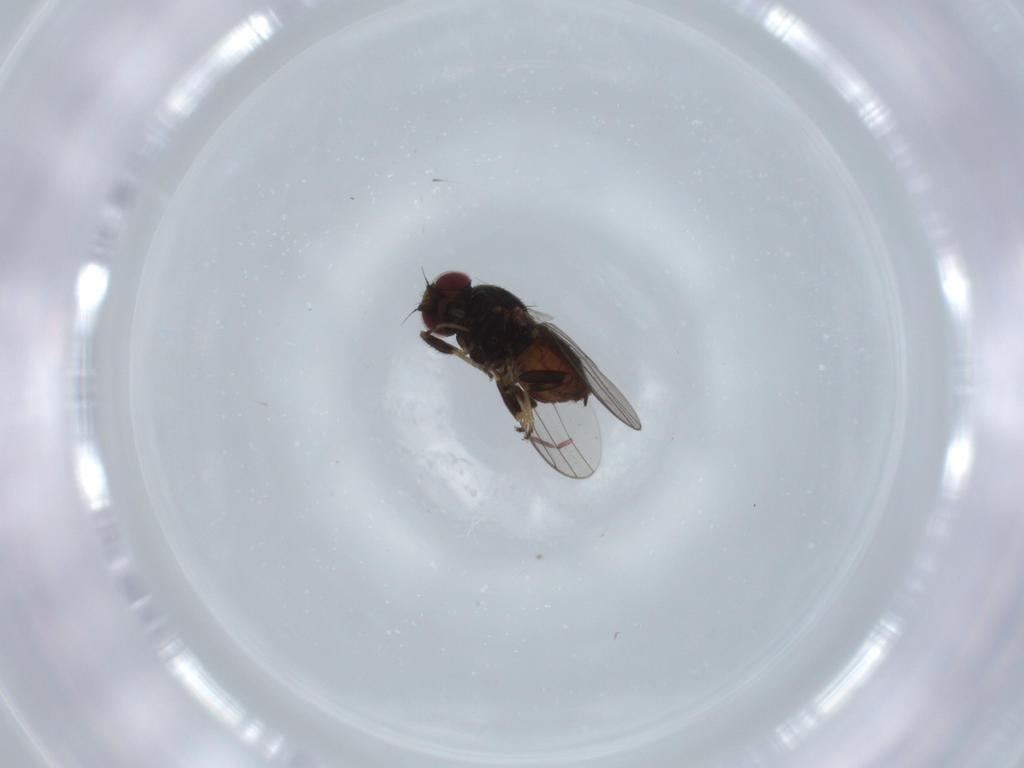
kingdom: Animalia
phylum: Arthropoda
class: Insecta
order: Diptera
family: Chloropidae
